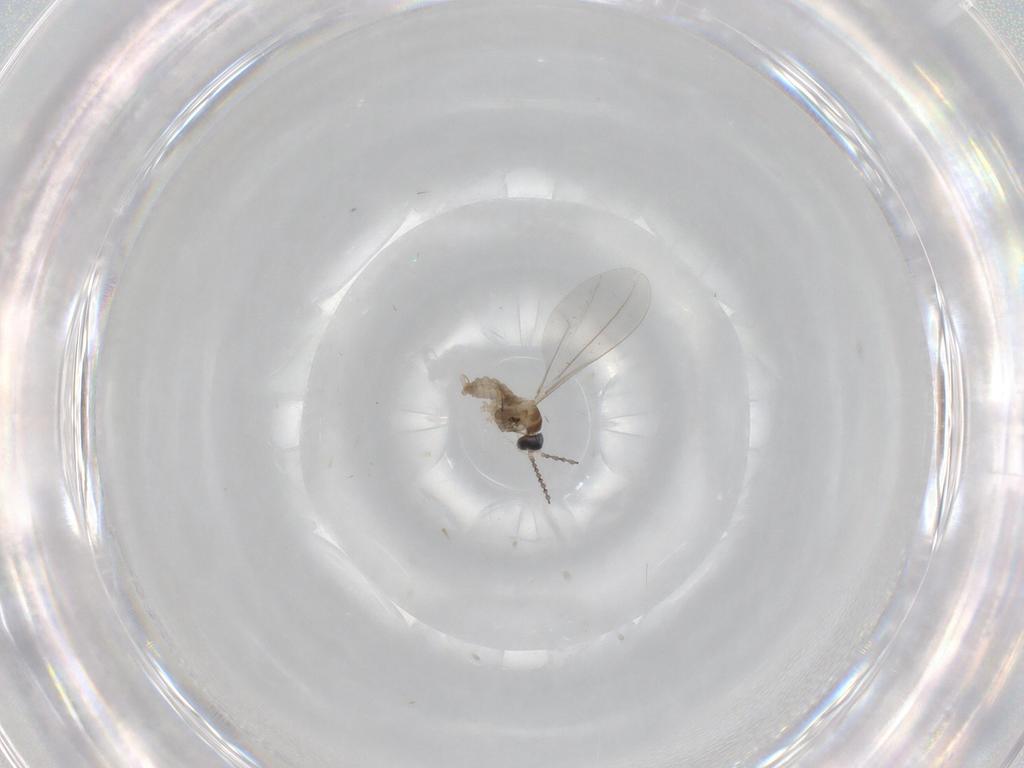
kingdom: Animalia
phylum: Arthropoda
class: Insecta
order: Diptera
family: Cecidomyiidae
